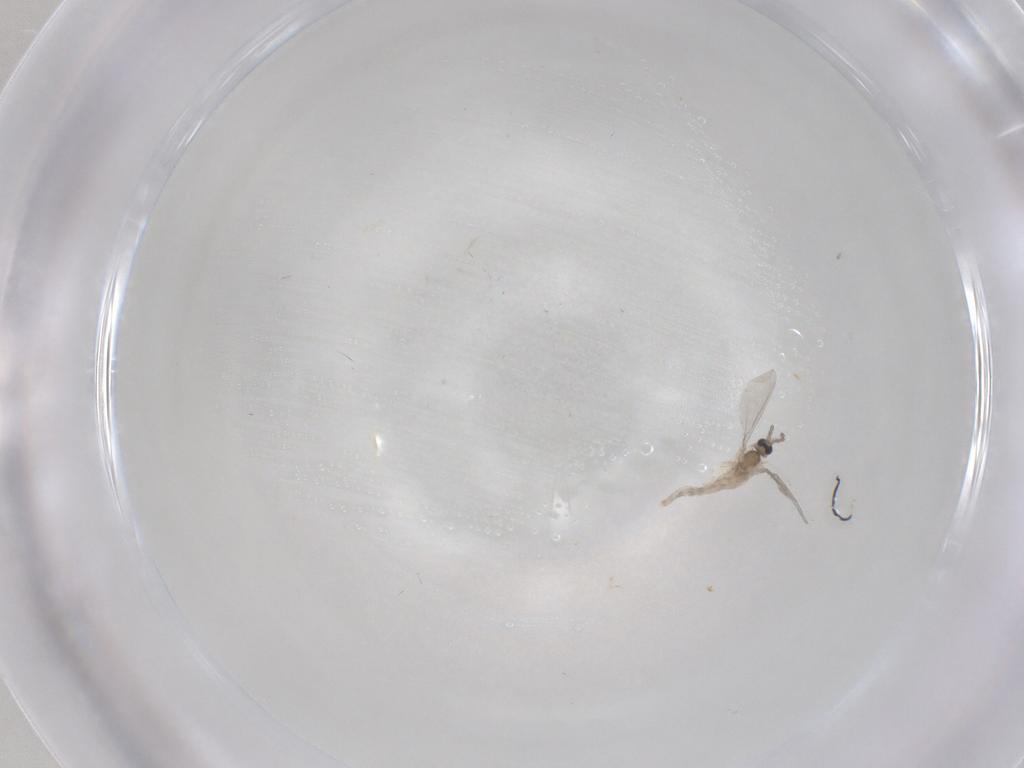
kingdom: Animalia
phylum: Arthropoda
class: Insecta
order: Diptera
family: Cecidomyiidae
